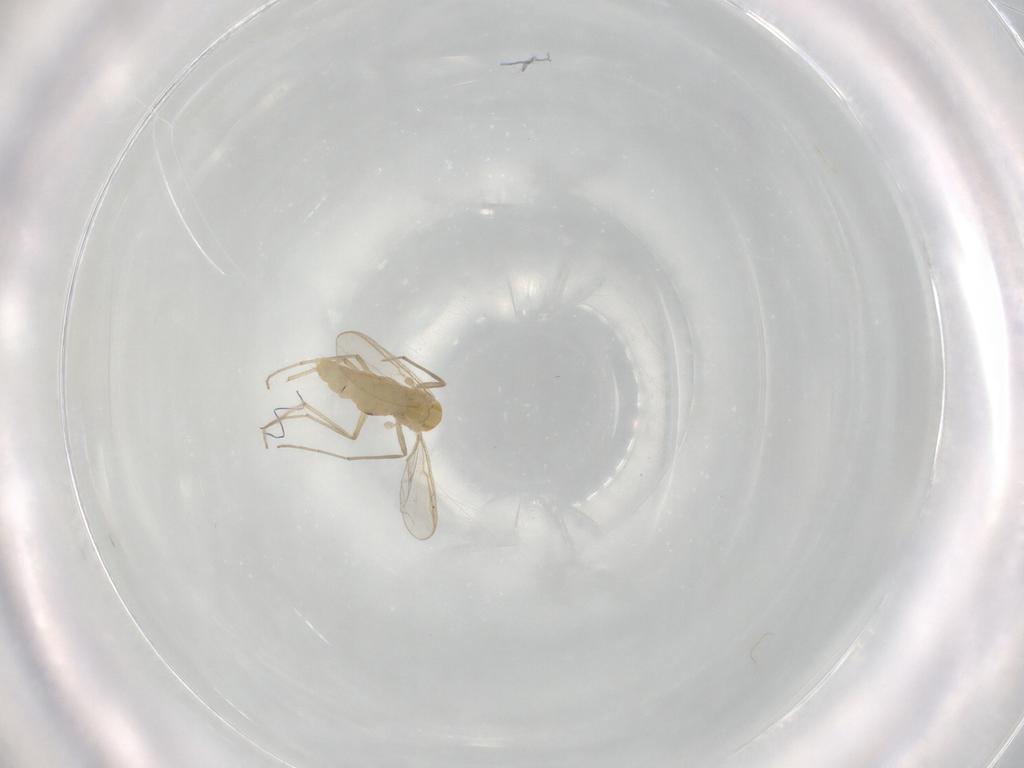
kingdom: Animalia
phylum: Arthropoda
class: Insecta
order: Diptera
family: Chironomidae
